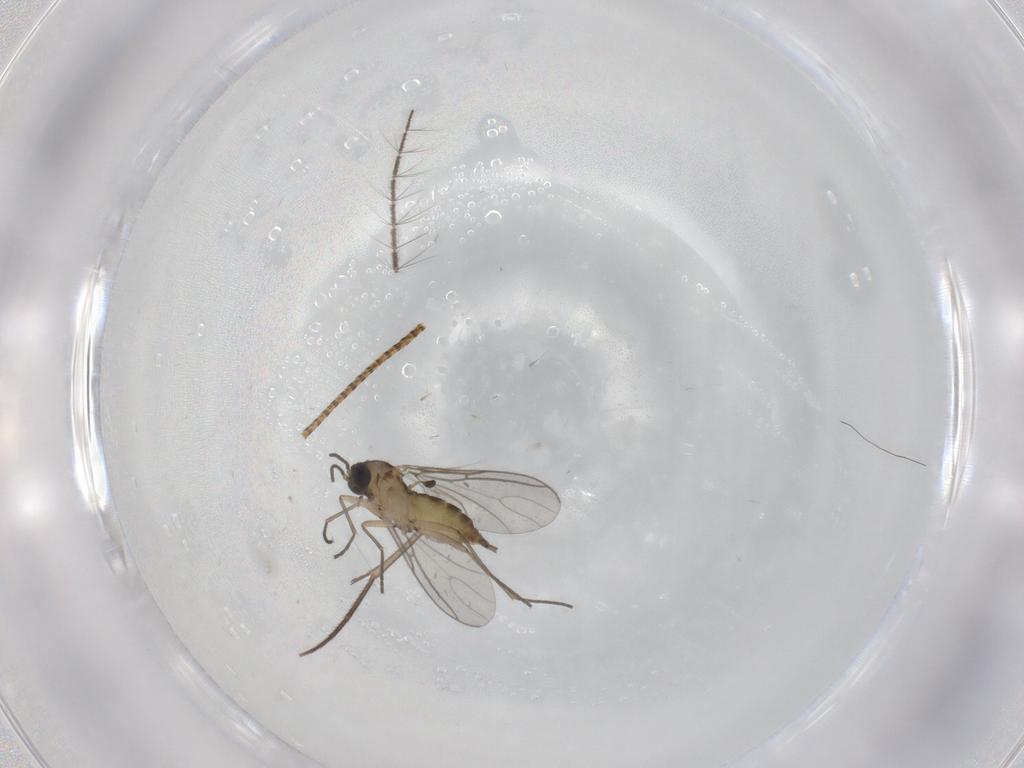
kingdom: Animalia
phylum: Arthropoda
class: Insecta
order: Diptera
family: Sciaridae
